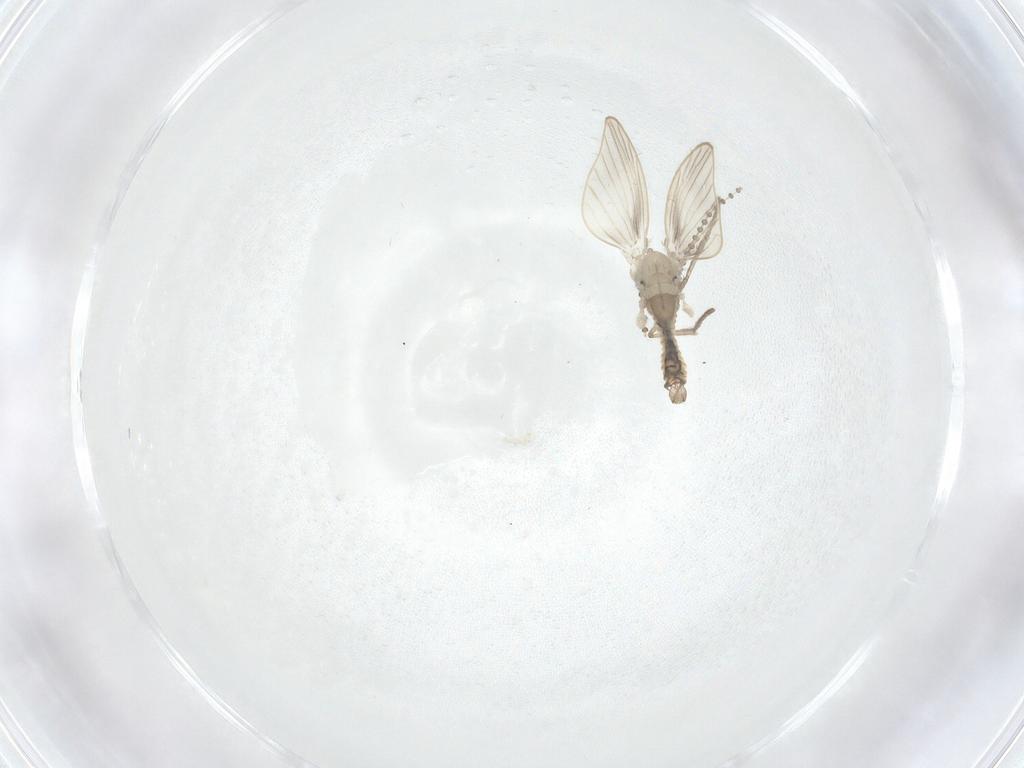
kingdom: Animalia
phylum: Arthropoda
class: Insecta
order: Diptera
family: Psychodidae
